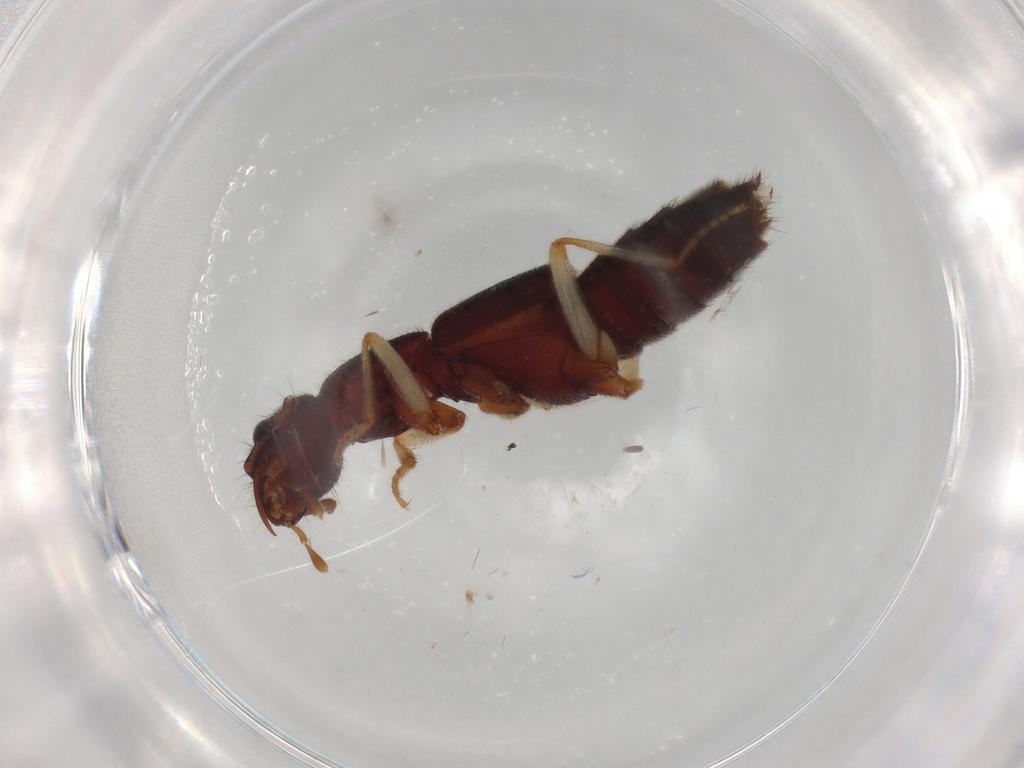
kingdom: Animalia
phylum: Arthropoda
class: Insecta
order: Coleoptera
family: Staphylinidae
